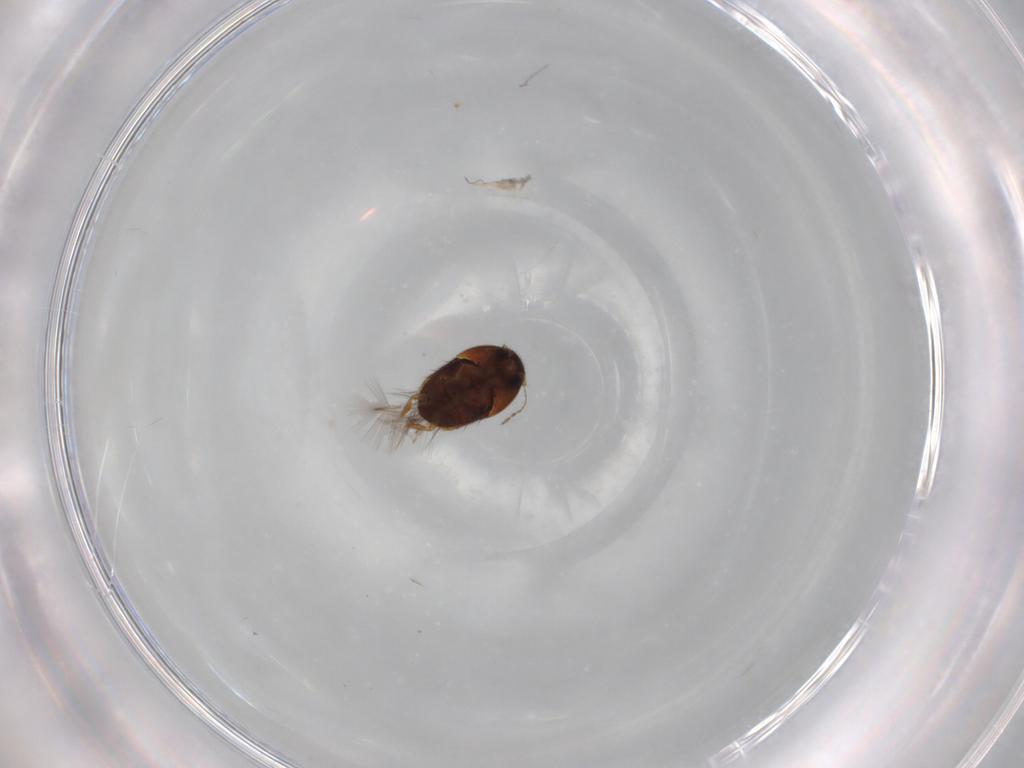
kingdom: Animalia
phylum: Arthropoda
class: Insecta
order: Coleoptera
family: Ptiliidae
